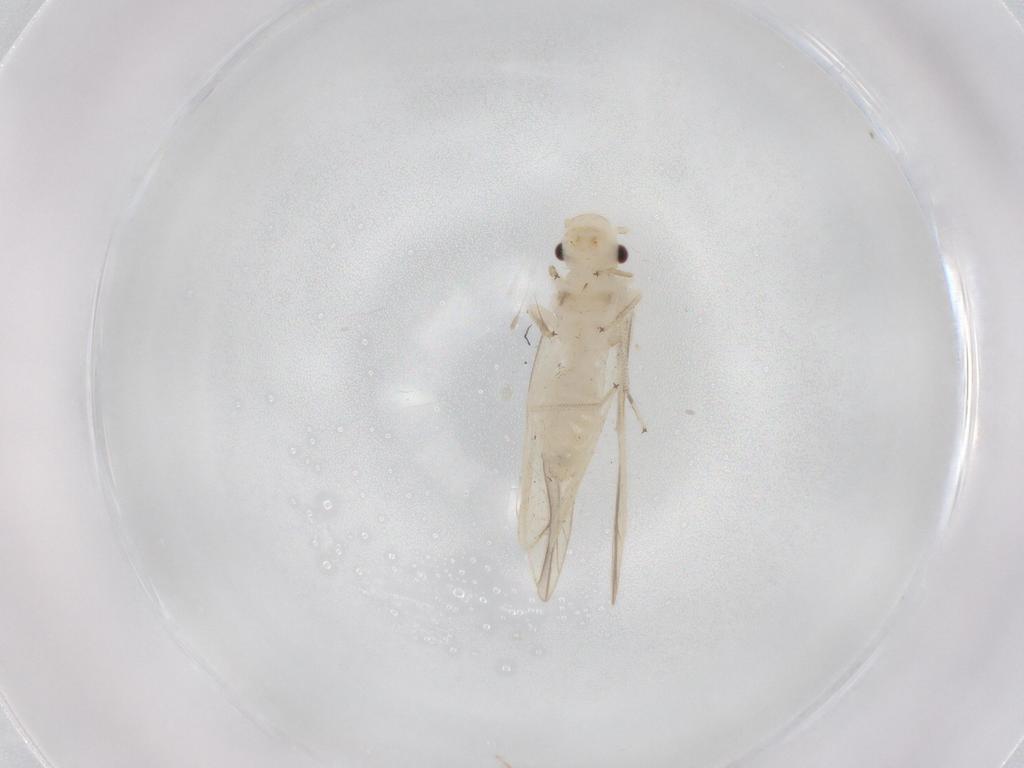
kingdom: Animalia
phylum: Arthropoda
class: Insecta
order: Psocodea
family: Caeciliusidae
